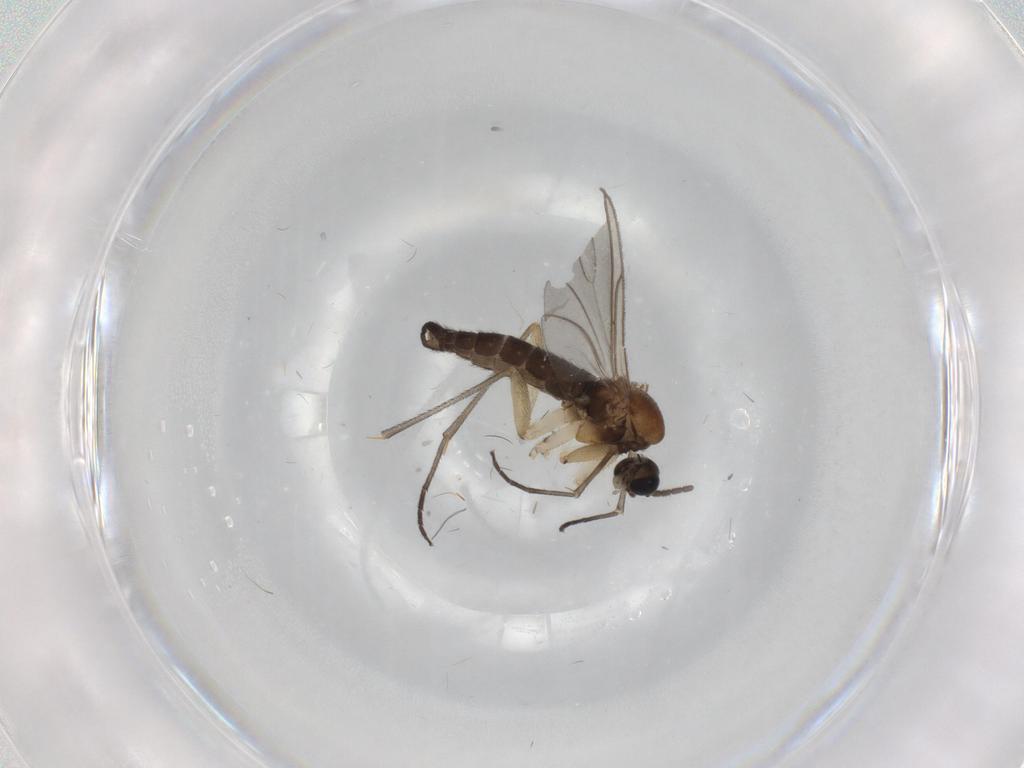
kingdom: Animalia
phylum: Arthropoda
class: Insecta
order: Diptera
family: Sciaridae
